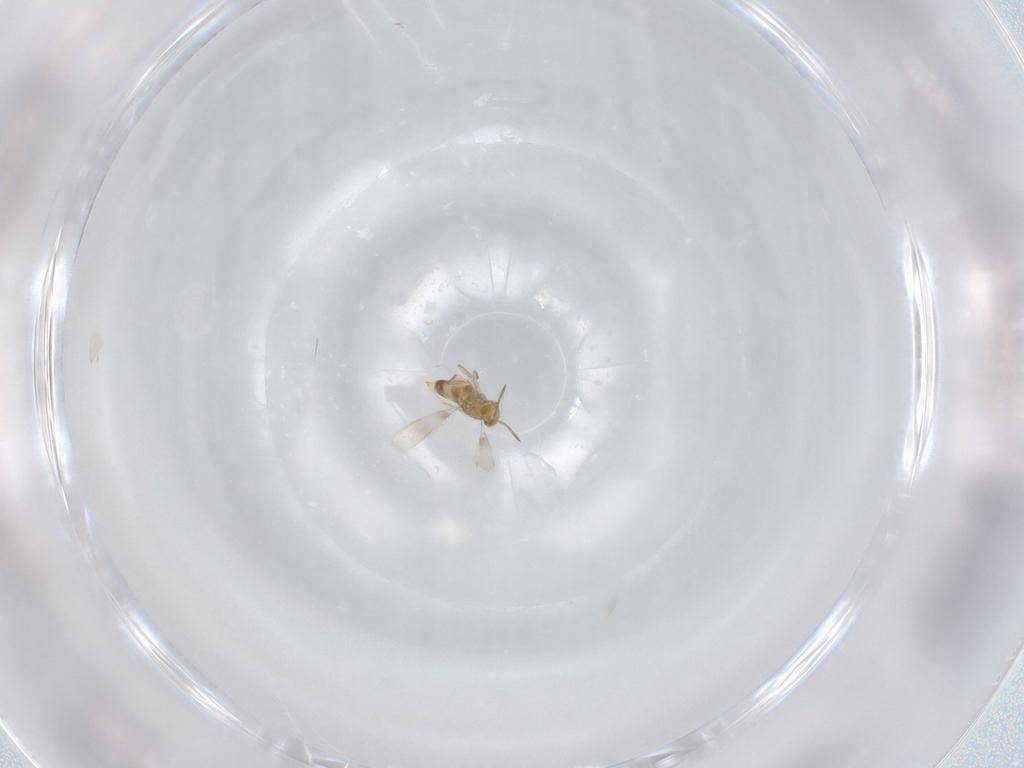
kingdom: Animalia
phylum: Arthropoda
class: Insecta
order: Hymenoptera
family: Aphelinidae
